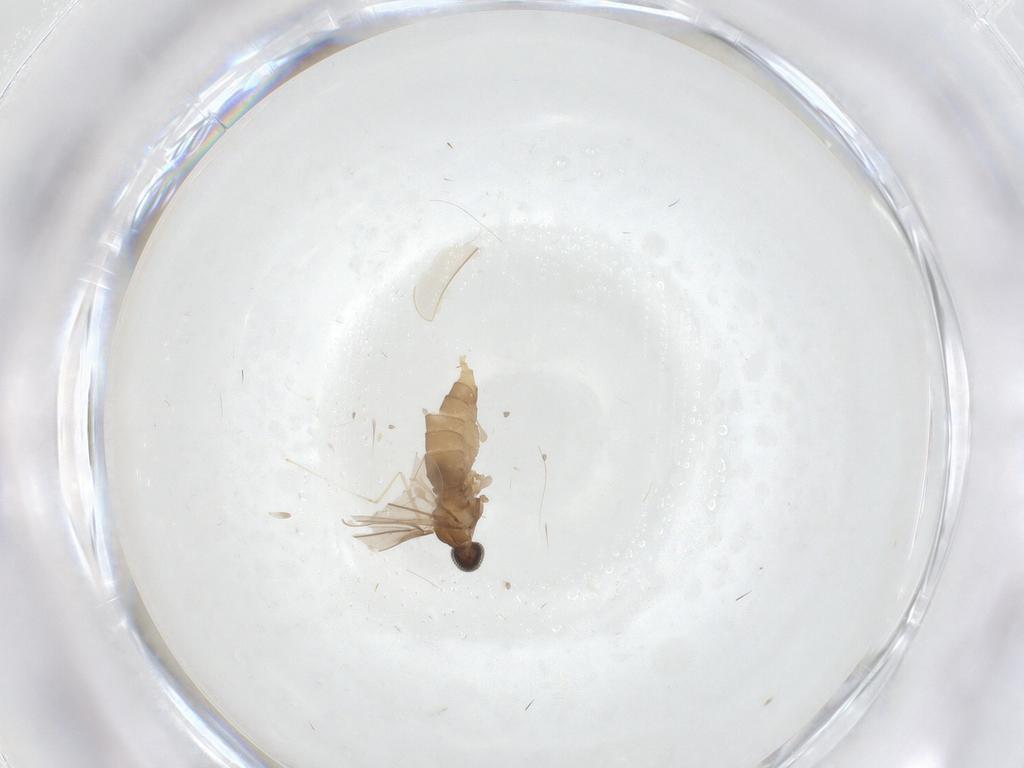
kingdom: Animalia
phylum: Arthropoda
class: Insecta
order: Diptera
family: Cecidomyiidae
